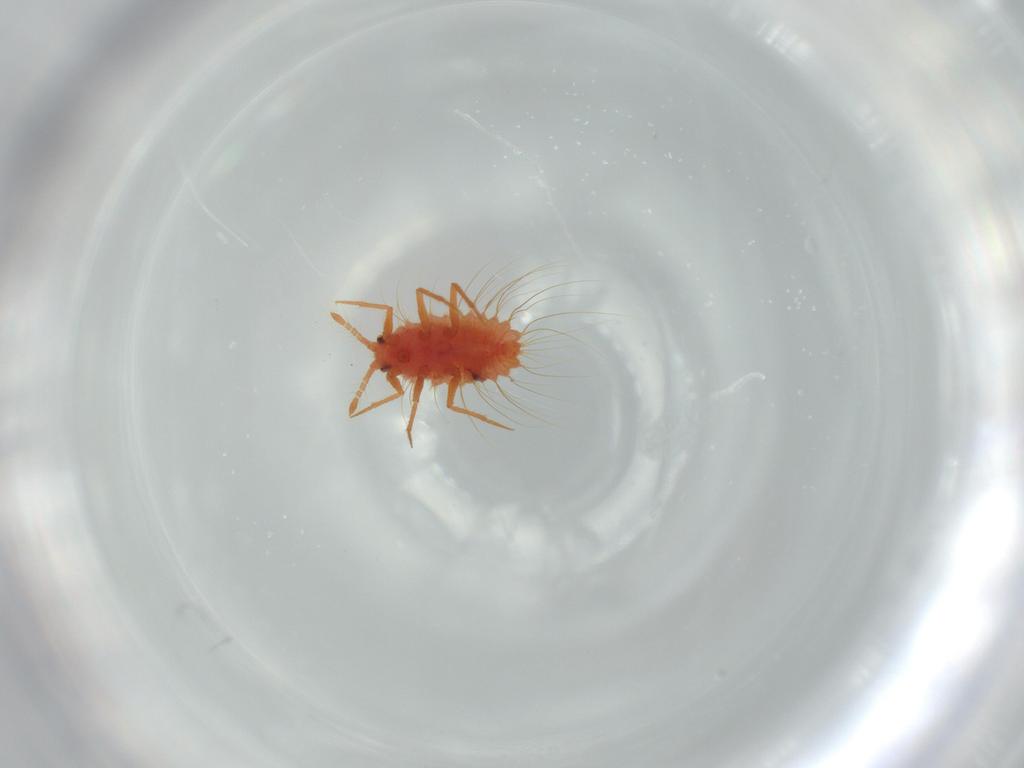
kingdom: Animalia
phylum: Arthropoda
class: Insecta
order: Hemiptera
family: Monophlebidae
